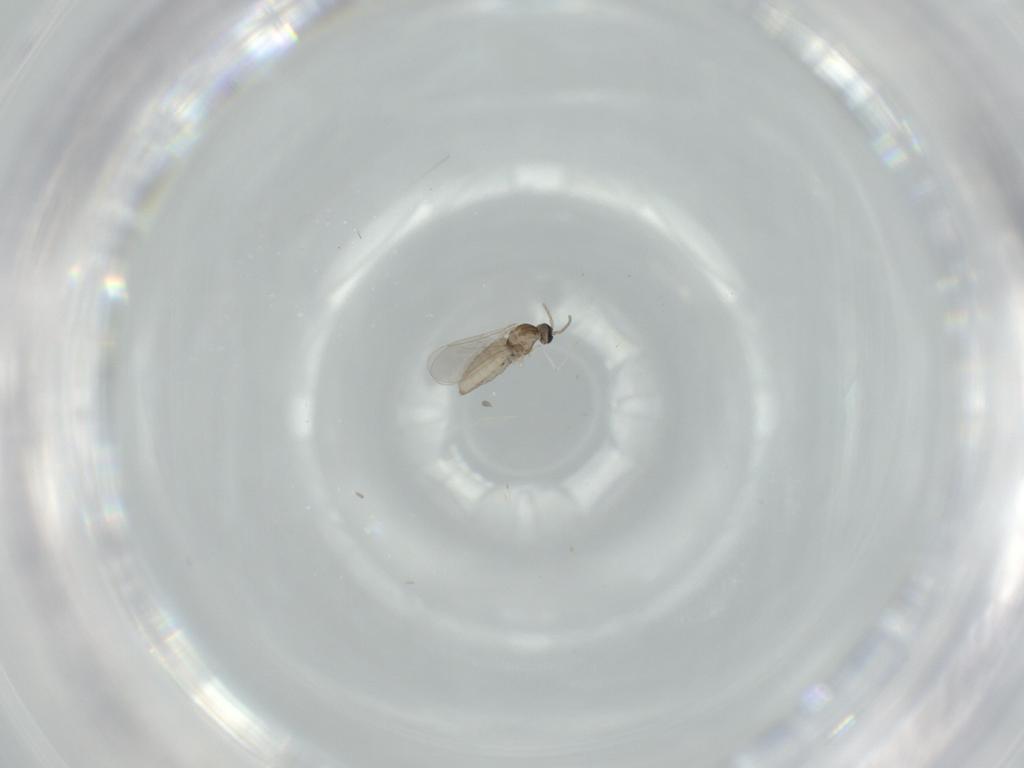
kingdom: Animalia
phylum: Arthropoda
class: Insecta
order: Diptera
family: Cecidomyiidae
